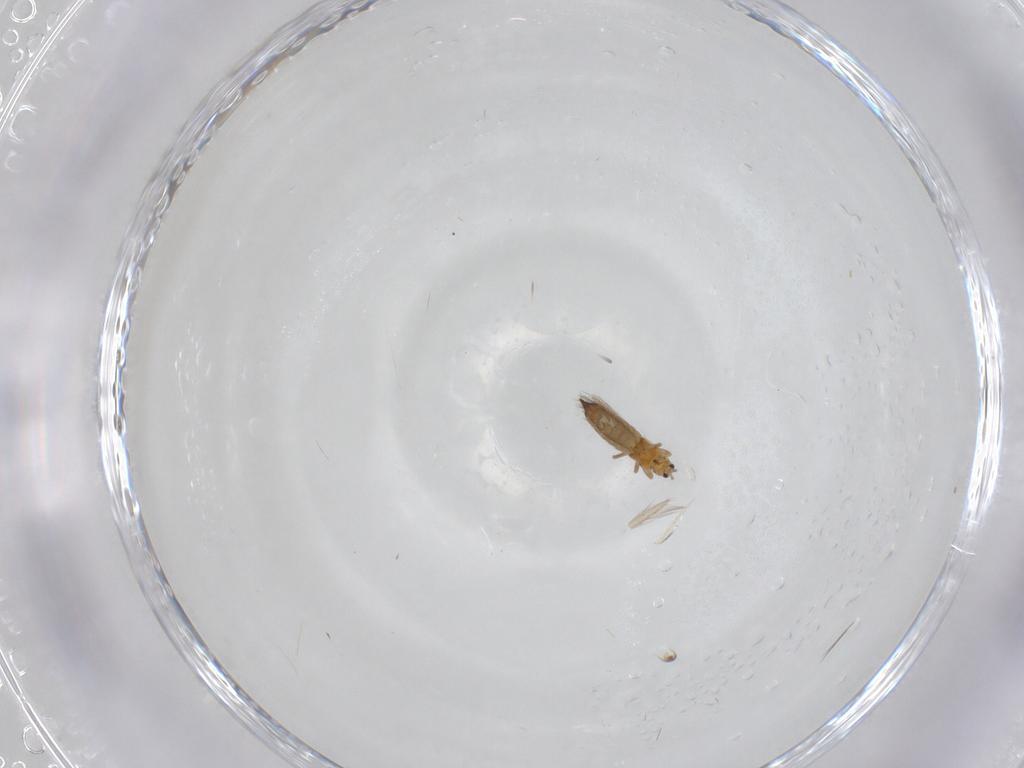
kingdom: Animalia
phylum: Arthropoda
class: Insecta
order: Thysanoptera
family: Thripidae
